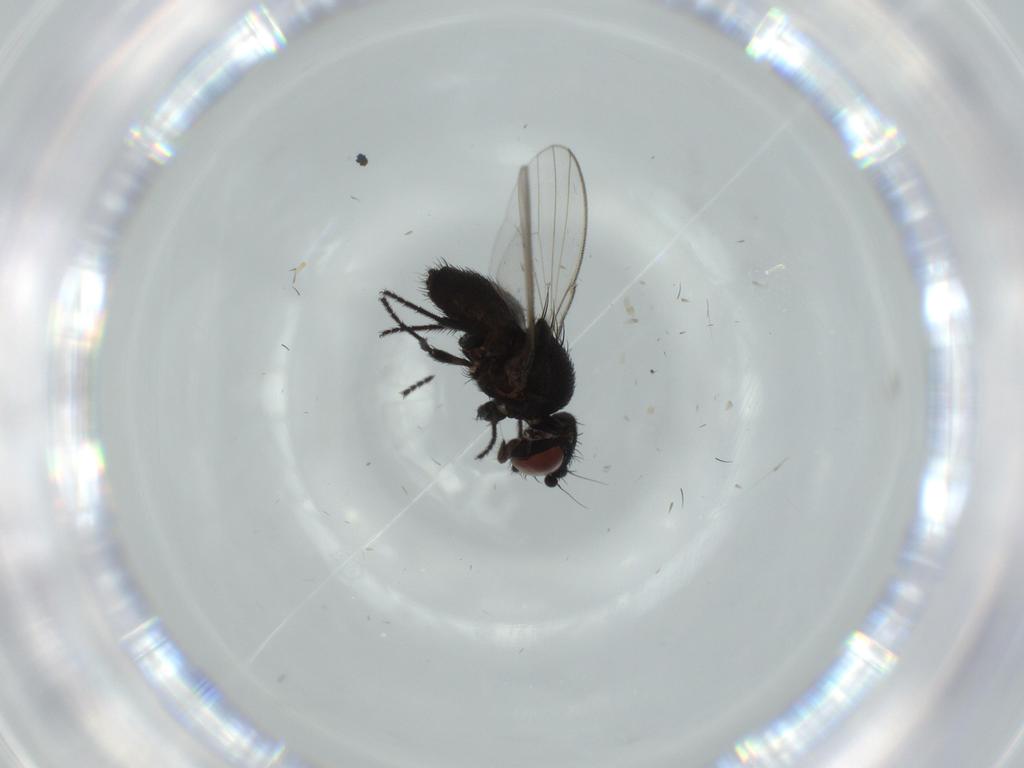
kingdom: Animalia
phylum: Arthropoda
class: Insecta
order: Diptera
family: Milichiidae
